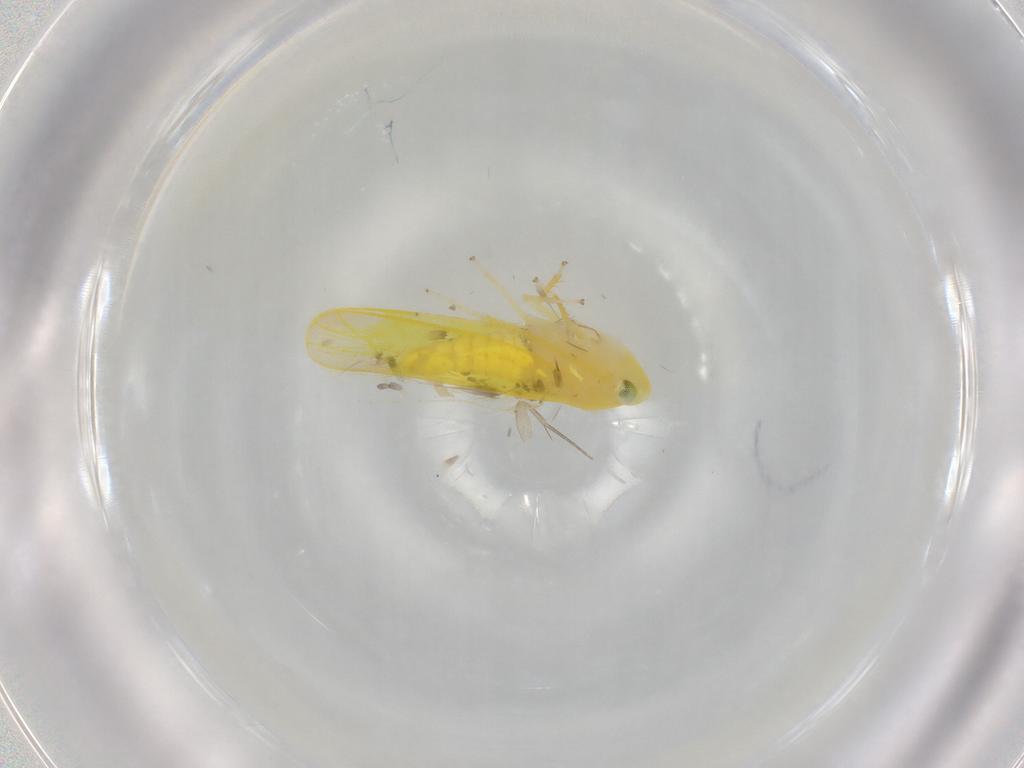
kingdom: Animalia
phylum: Arthropoda
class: Insecta
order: Hemiptera
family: Cicadellidae
